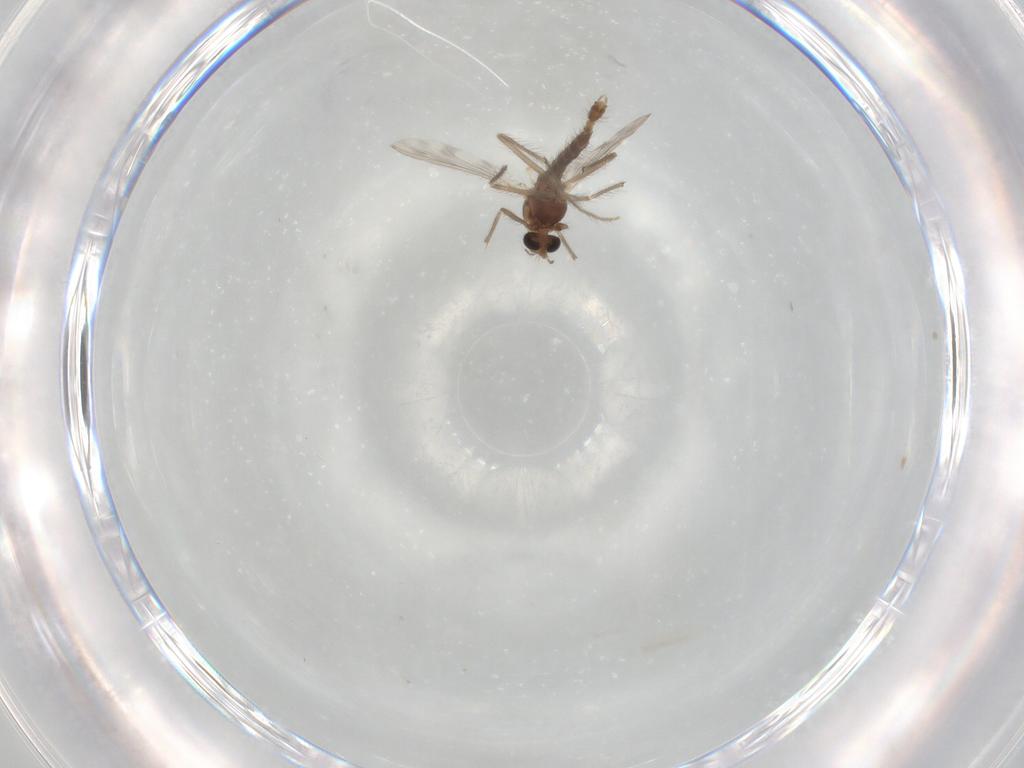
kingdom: Animalia
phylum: Arthropoda
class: Insecta
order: Diptera
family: Chironomidae
